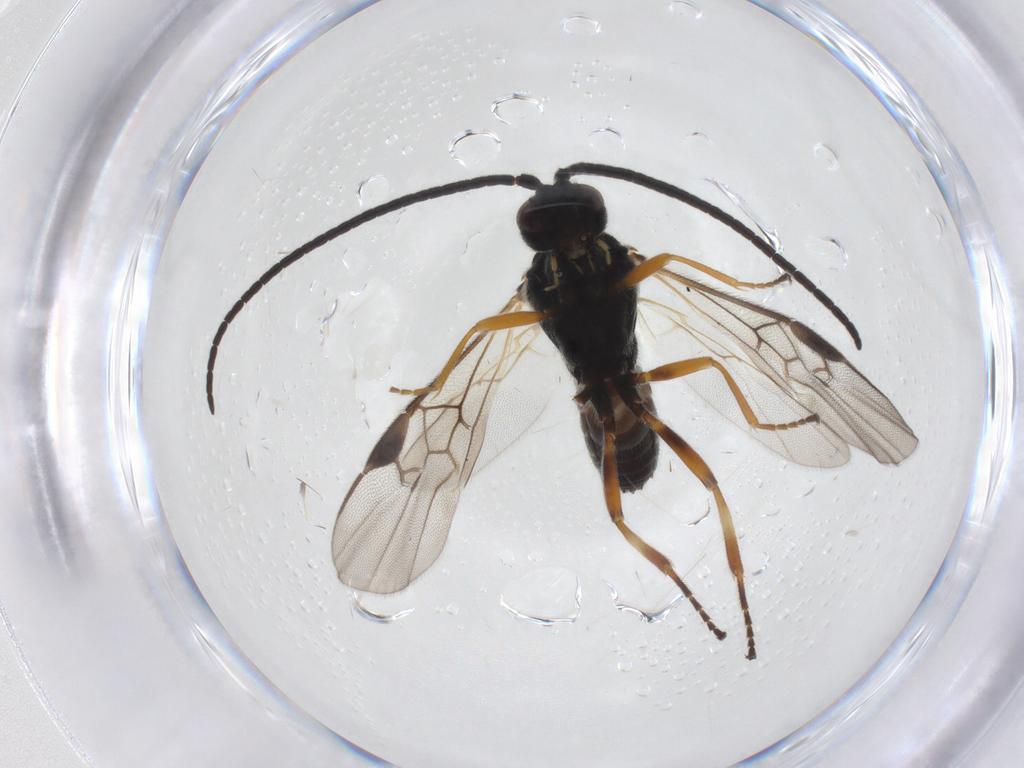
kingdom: Animalia
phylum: Arthropoda
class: Insecta
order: Hymenoptera
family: Braconidae
